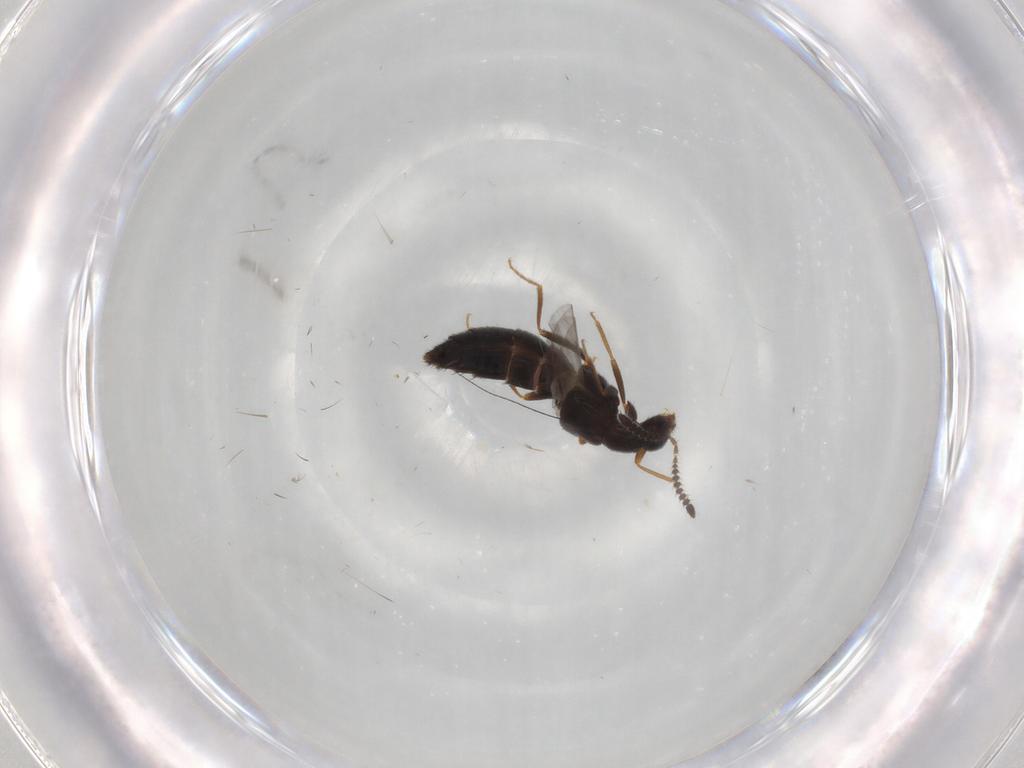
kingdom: Animalia
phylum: Arthropoda
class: Insecta
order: Coleoptera
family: Staphylinidae
